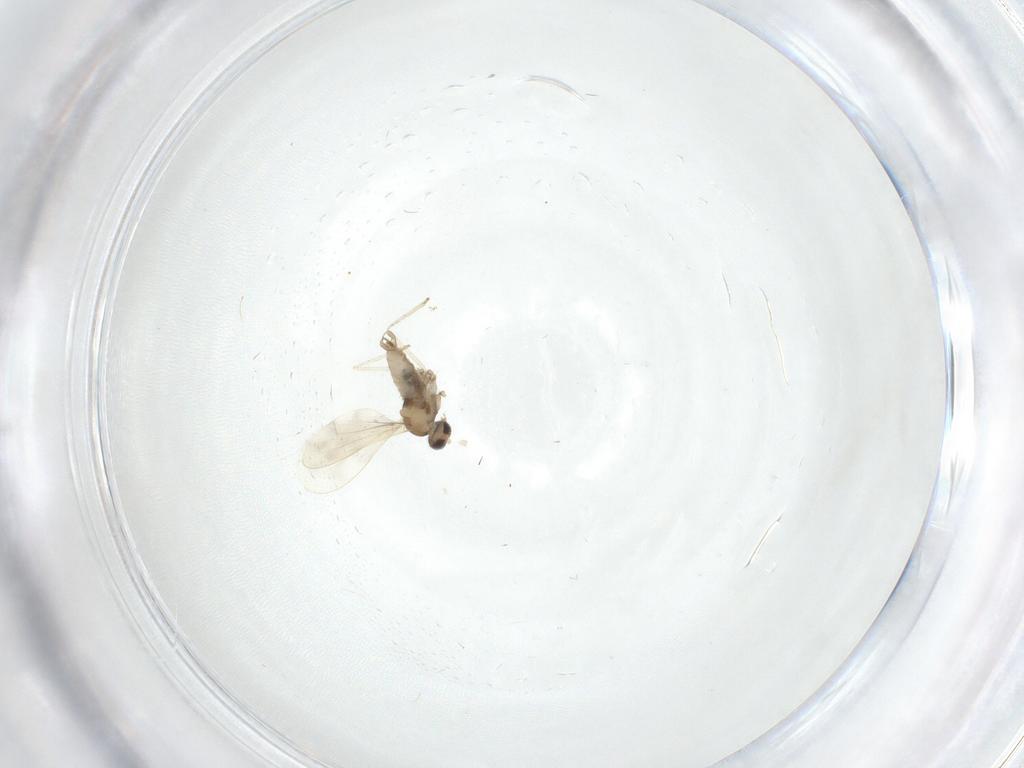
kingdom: Animalia
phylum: Arthropoda
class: Insecta
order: Diptera
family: Cecidomyiidae
